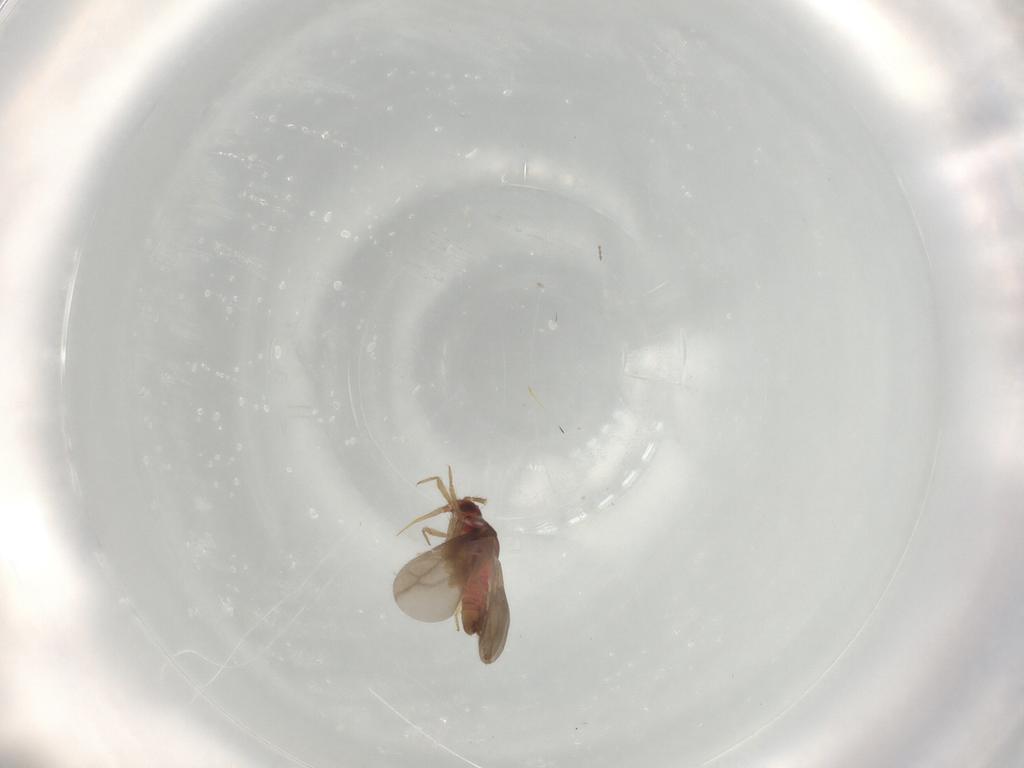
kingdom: Animalia
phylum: Arthropoda
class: Insecta
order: Hemiptera
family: Ceratocombidae
